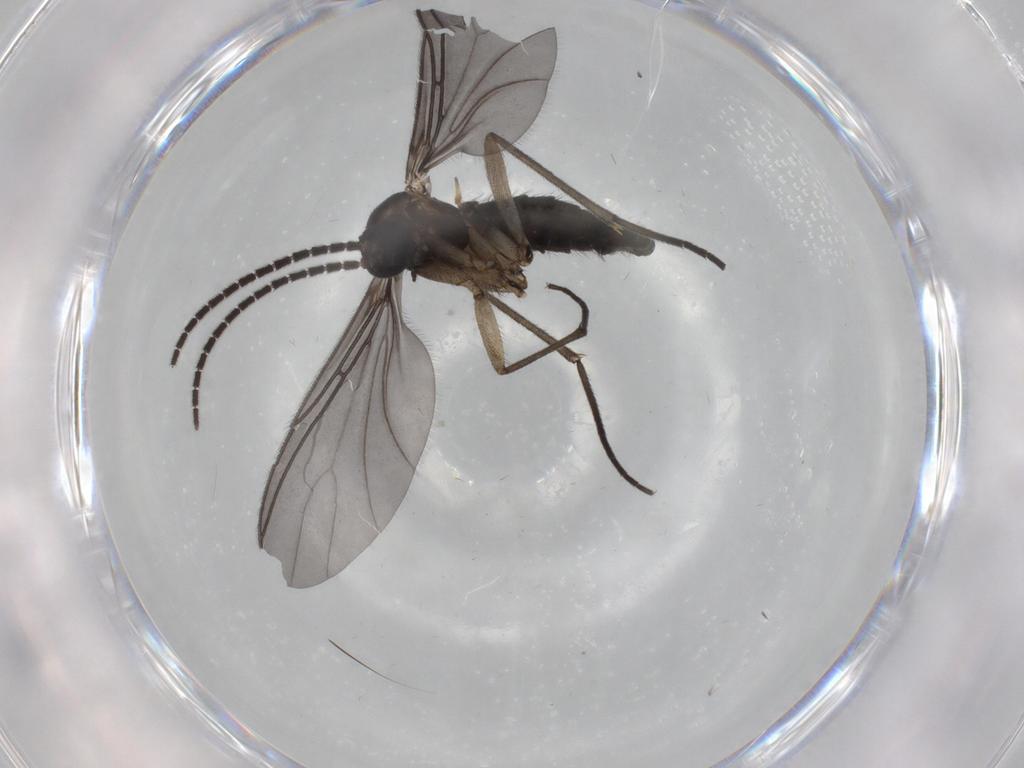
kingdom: Animalia
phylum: Arthropoda
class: Insecta
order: Diptera
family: Sciaridae
